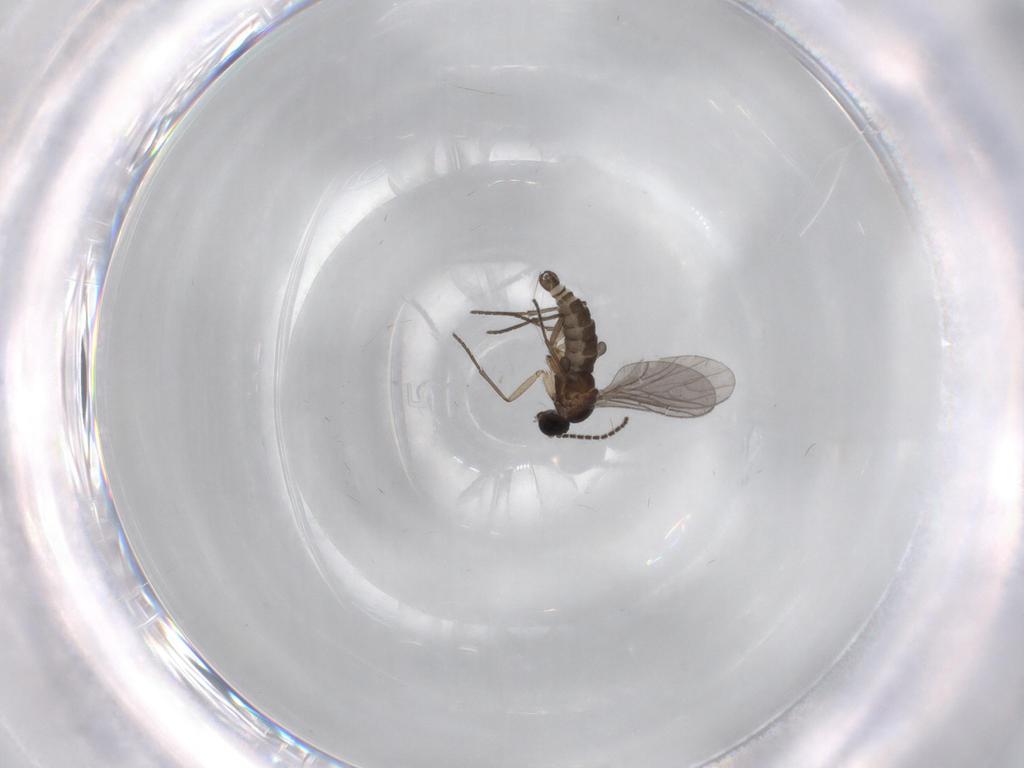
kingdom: Animalia
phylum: Arthropoda
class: Insecta
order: Diptera
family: Sciaridae
